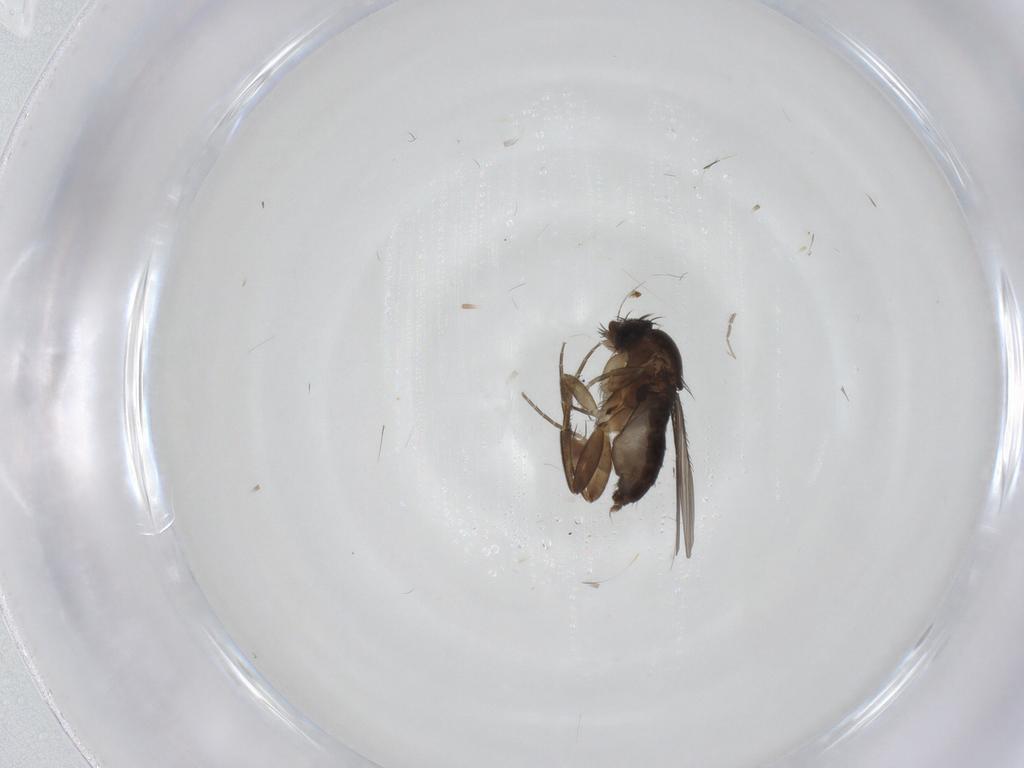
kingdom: Animalia
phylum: Arthropoda
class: Insecta
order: Diptera
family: Phoridae
